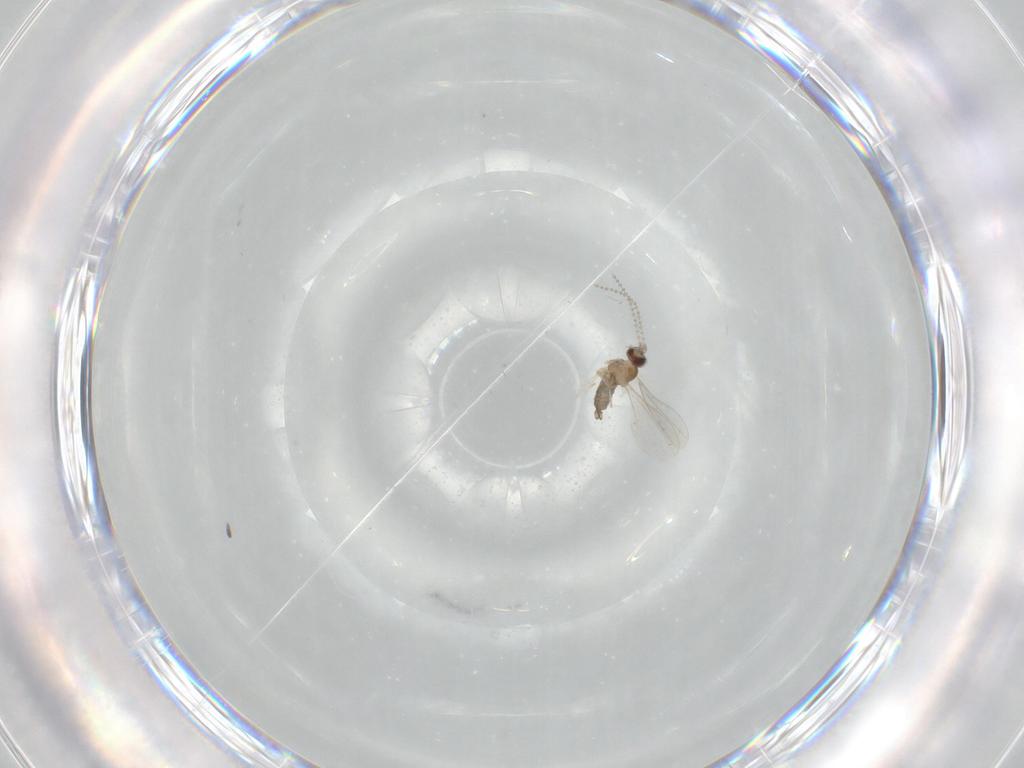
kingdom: Animalia
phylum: Arthropoda
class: Insecta
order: Diptera
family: Cecidomyiidae
